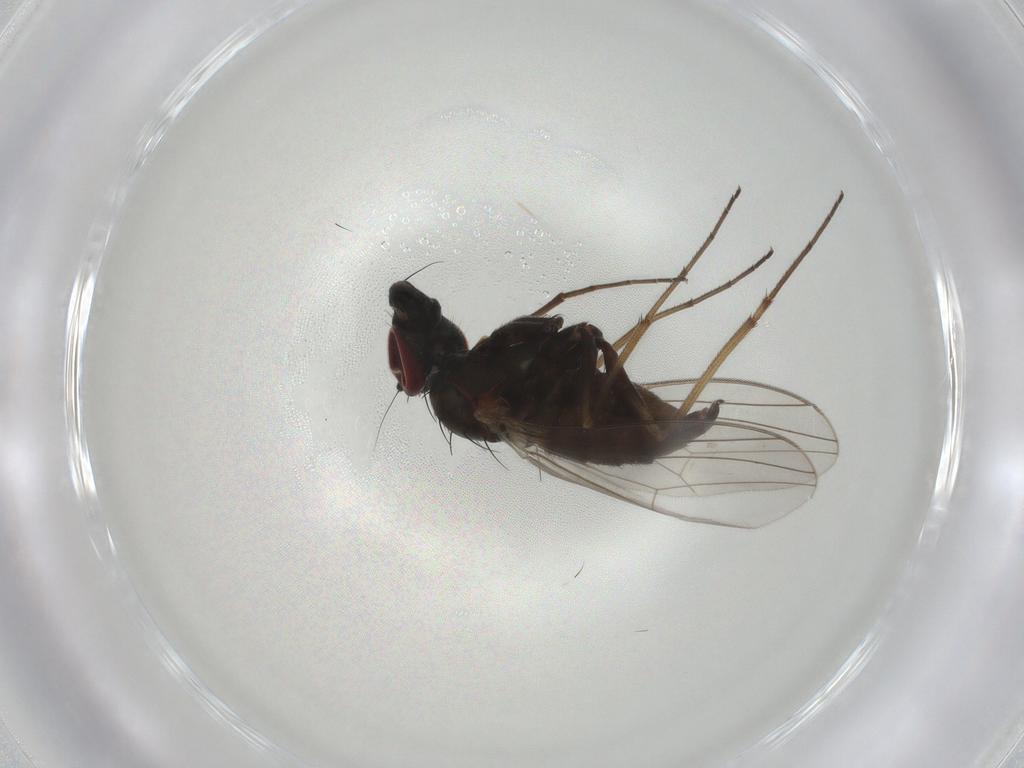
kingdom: Animalia
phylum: Arthropoda
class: Insecta
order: Diptera
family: Dolichopodidae
